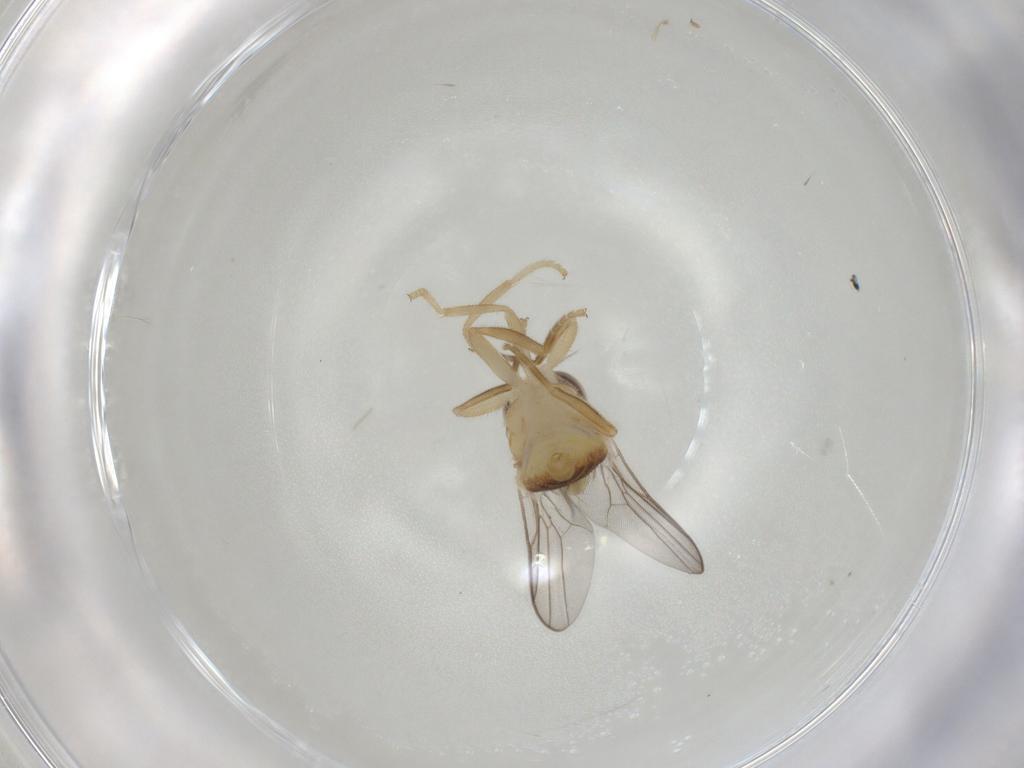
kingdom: Animalia
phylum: Arthropoda
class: Insecta
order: Diptera
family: Chloropidae
